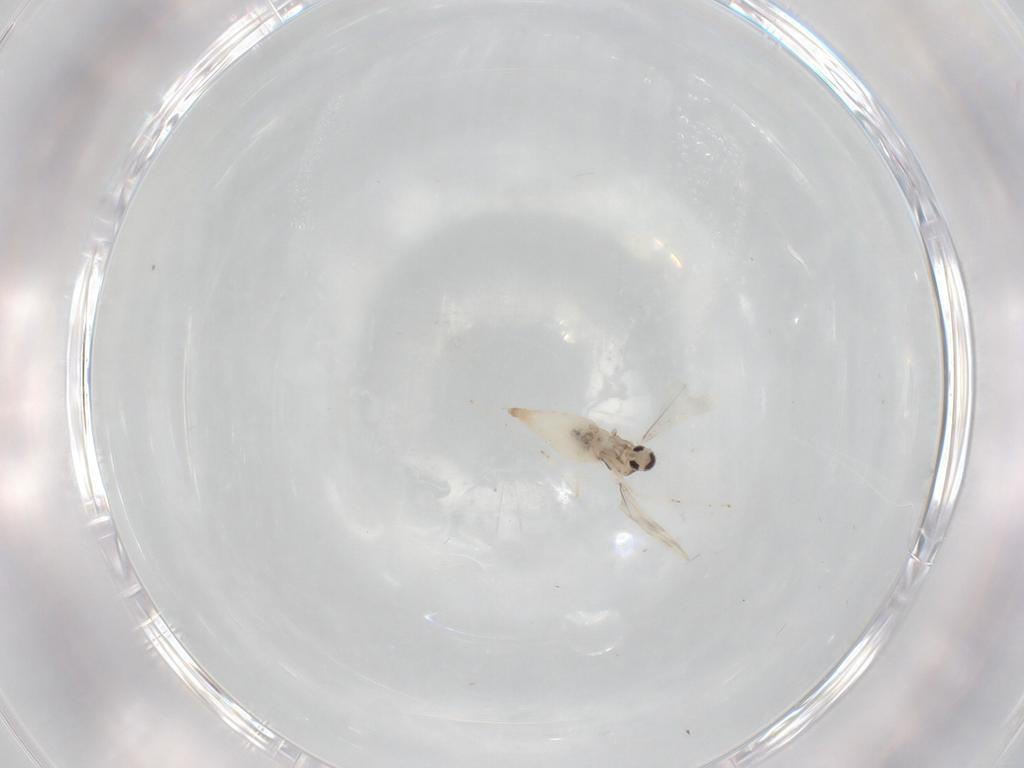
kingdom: Animalia
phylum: Arthropoda
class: Insecta
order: Diptera
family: Cecidomyiidae
